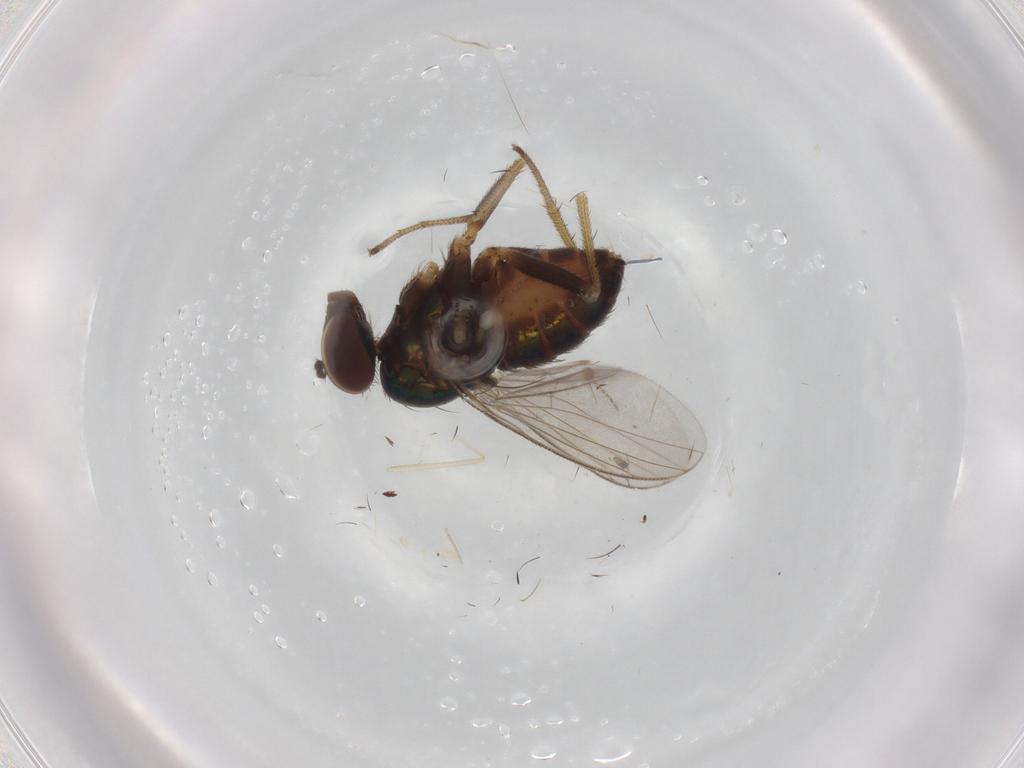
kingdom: Animalia
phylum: Arthropoda
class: Insecta
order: Diptera
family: Dolichopodidae
